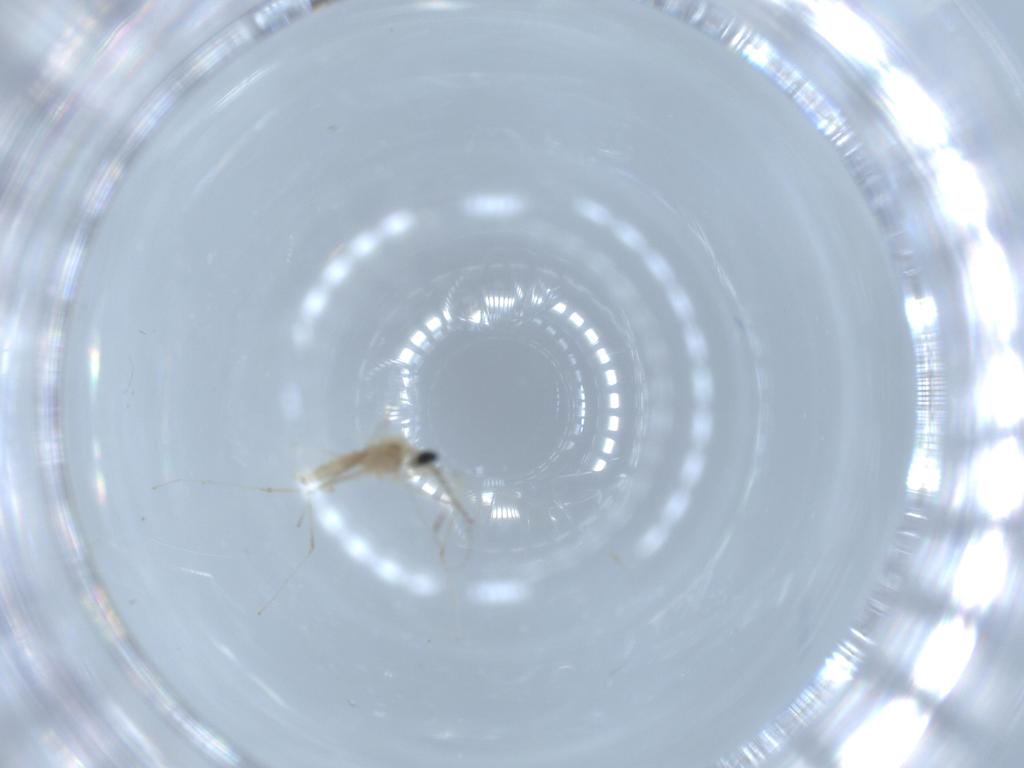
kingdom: Animalia
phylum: Arthropoda
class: Insecta
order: Diptera
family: Cecidomyiidae
